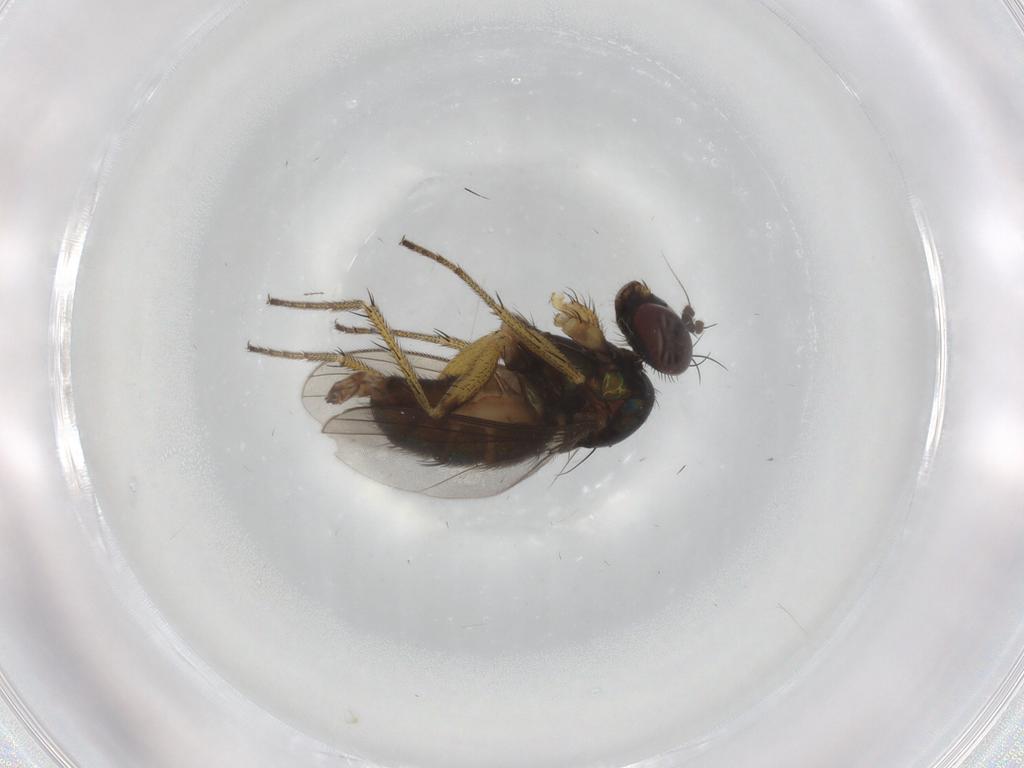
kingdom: Animalia
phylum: Arthropoda
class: Insecta
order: Diptera
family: Dolichopodidae
